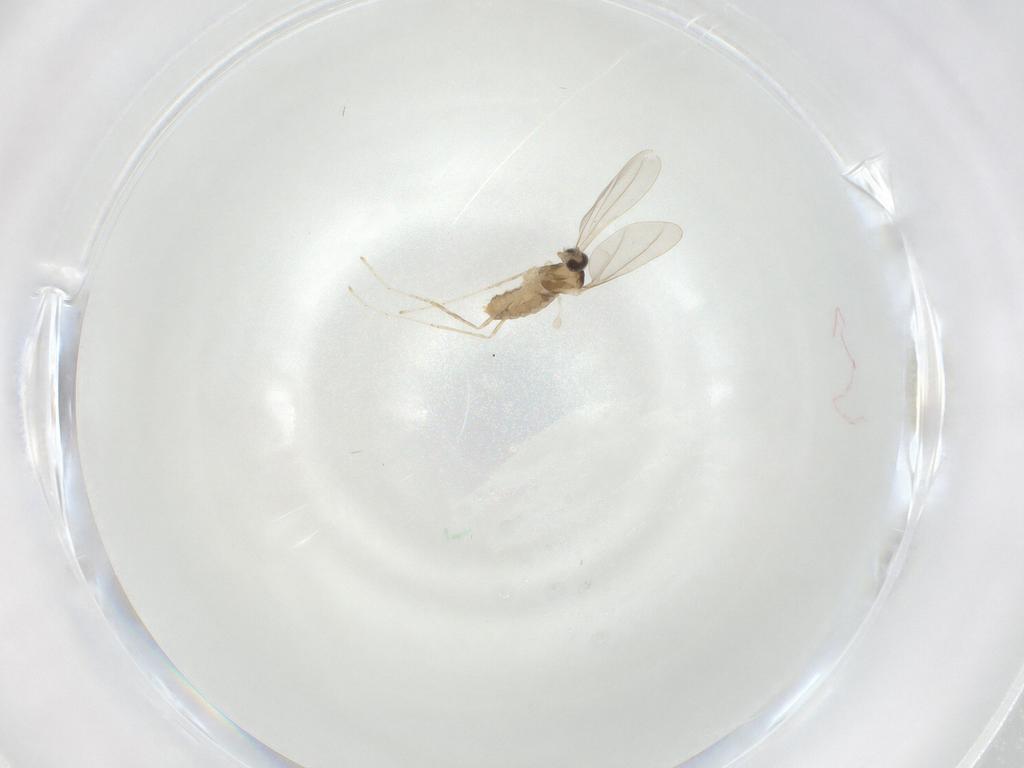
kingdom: Animalia
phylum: Arthropoda
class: Insecta
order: Diptera
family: Cecidomyiidae
